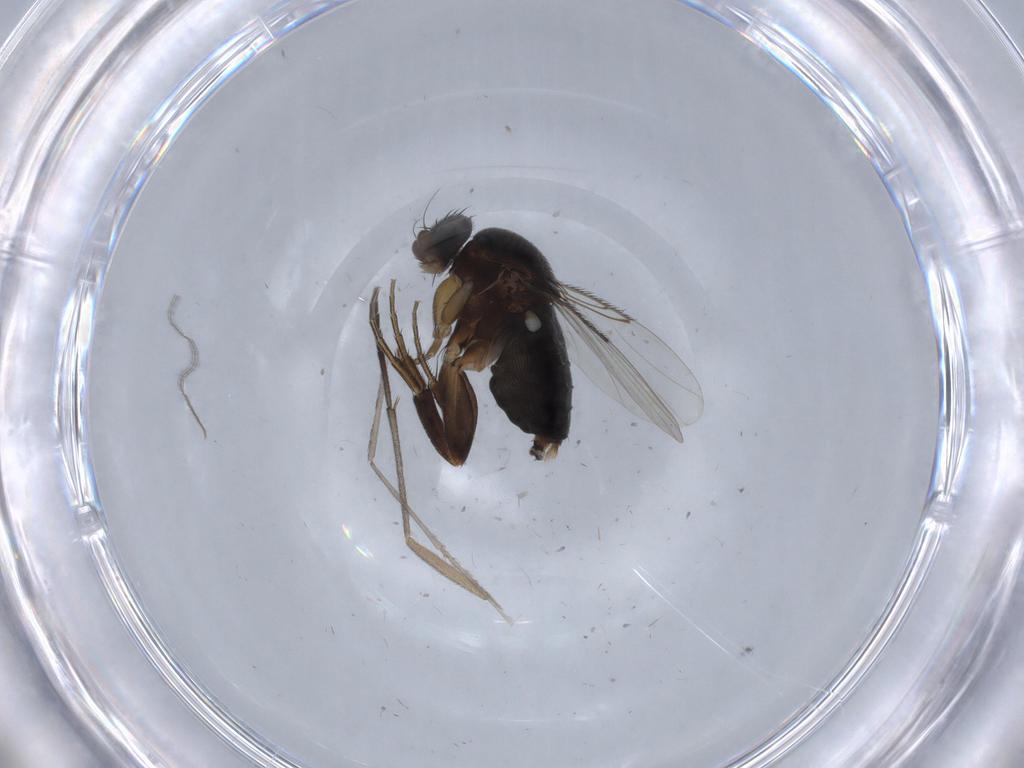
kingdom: Animalia
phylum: Arthropoda
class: Insecta
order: Diptera
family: Phoridae
